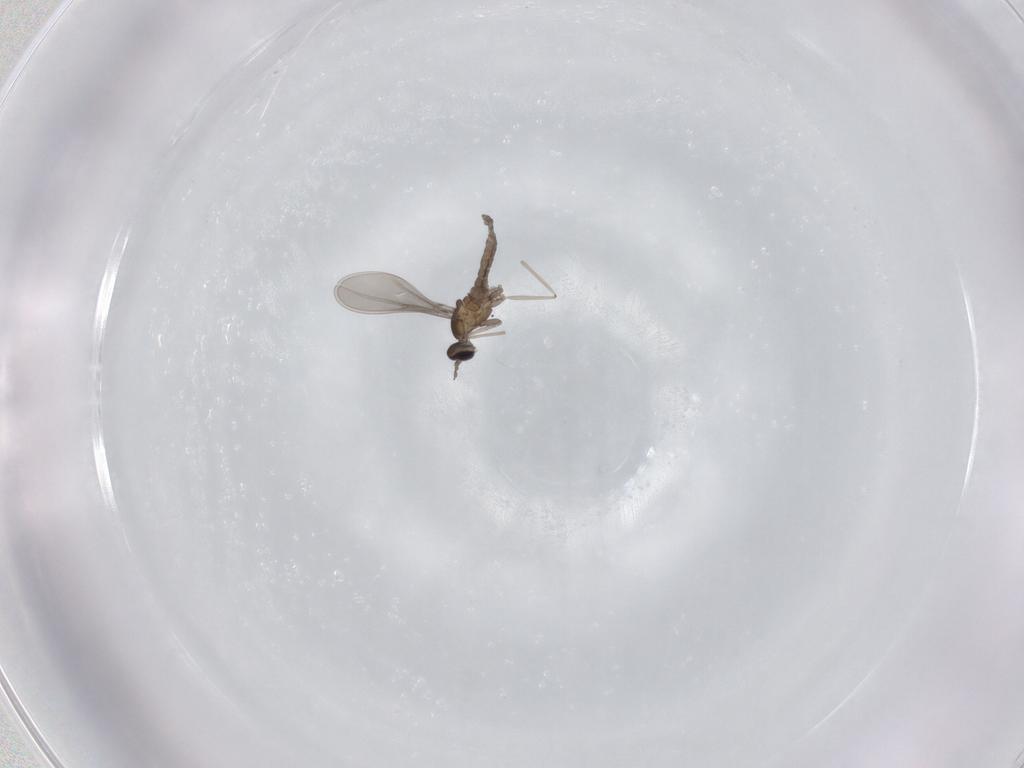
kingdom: Animalia
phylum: Arthropoda
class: Insecta
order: Diptera
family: Cecidomyiidae
